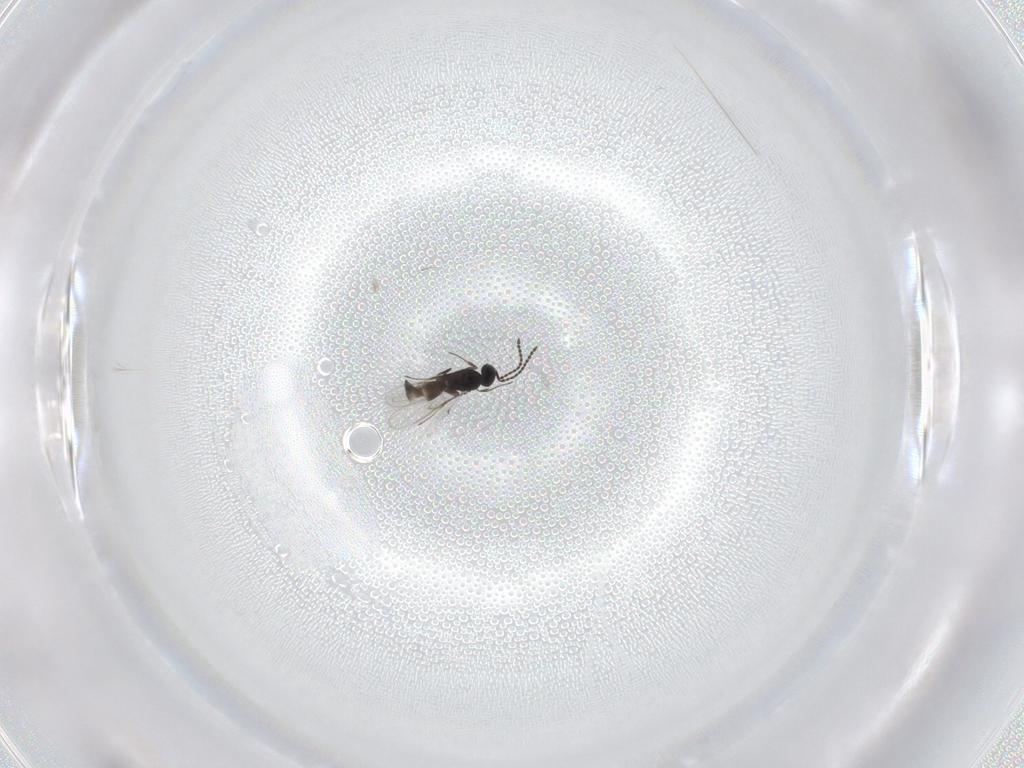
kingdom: Animalia
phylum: Arthropoda
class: Insecta
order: Hymenoptera
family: Scelionidae
